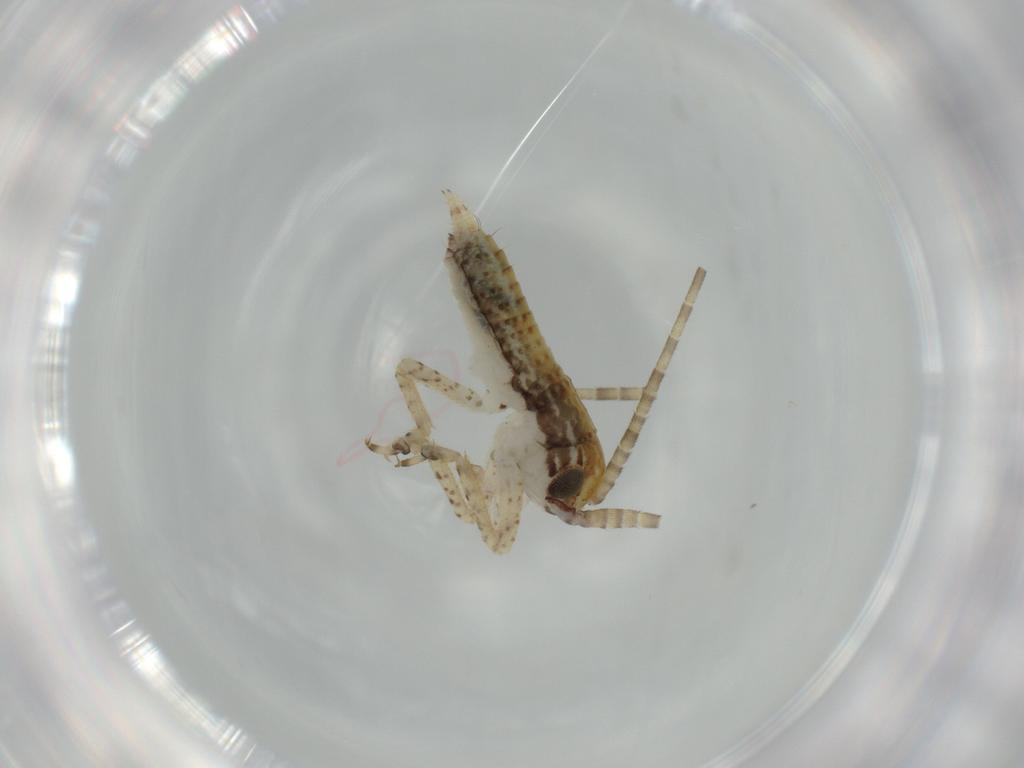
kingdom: Animalia
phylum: Arthropoda
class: Insecta
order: Orthoptera
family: Gryllidae
